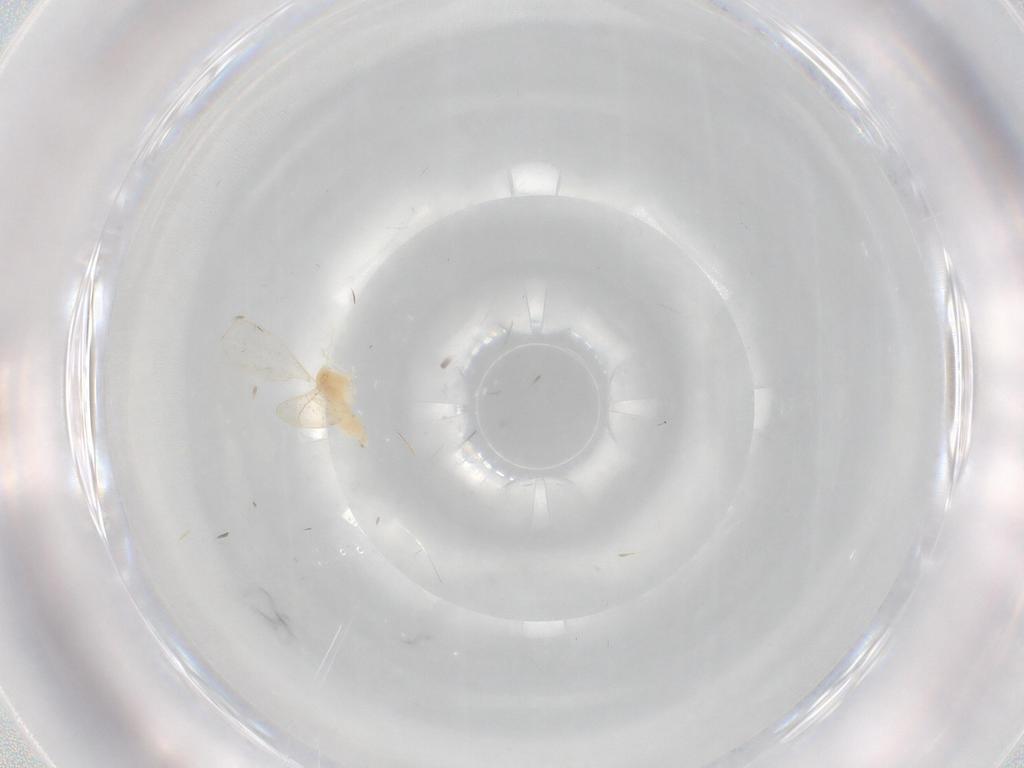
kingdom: Animalia
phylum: Arthropoda
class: Insecta
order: Diptera
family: Cecidomyiidae
